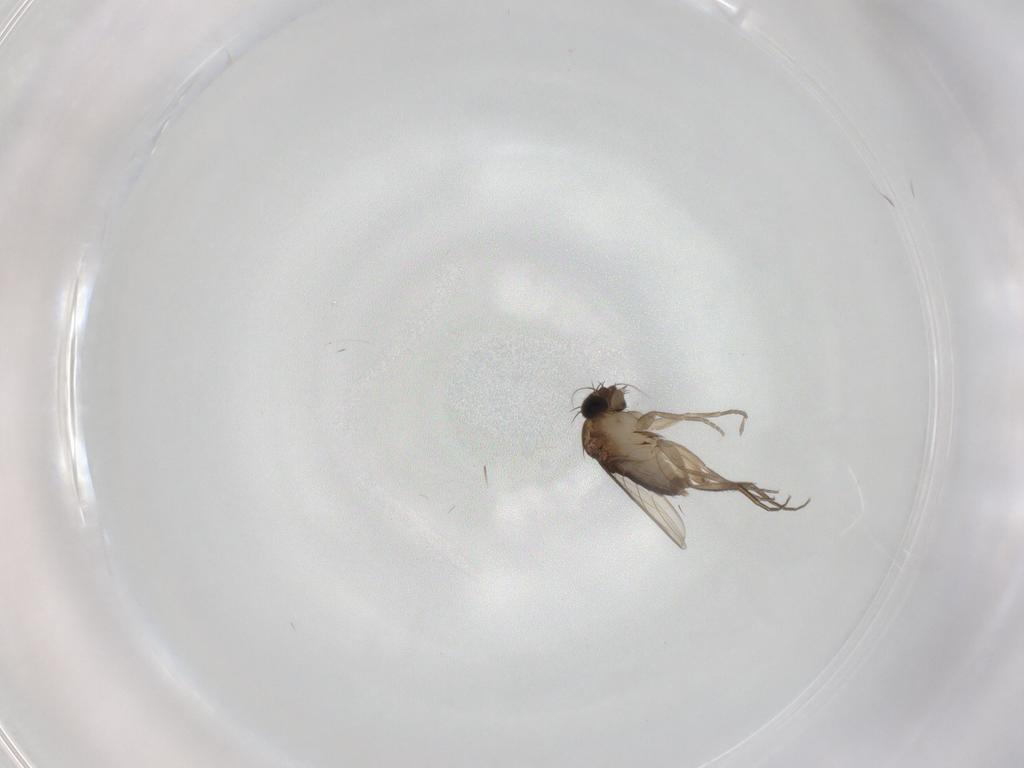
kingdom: Animalia
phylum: Arthropoda
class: Insecta
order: Diptera
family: Phoridae
